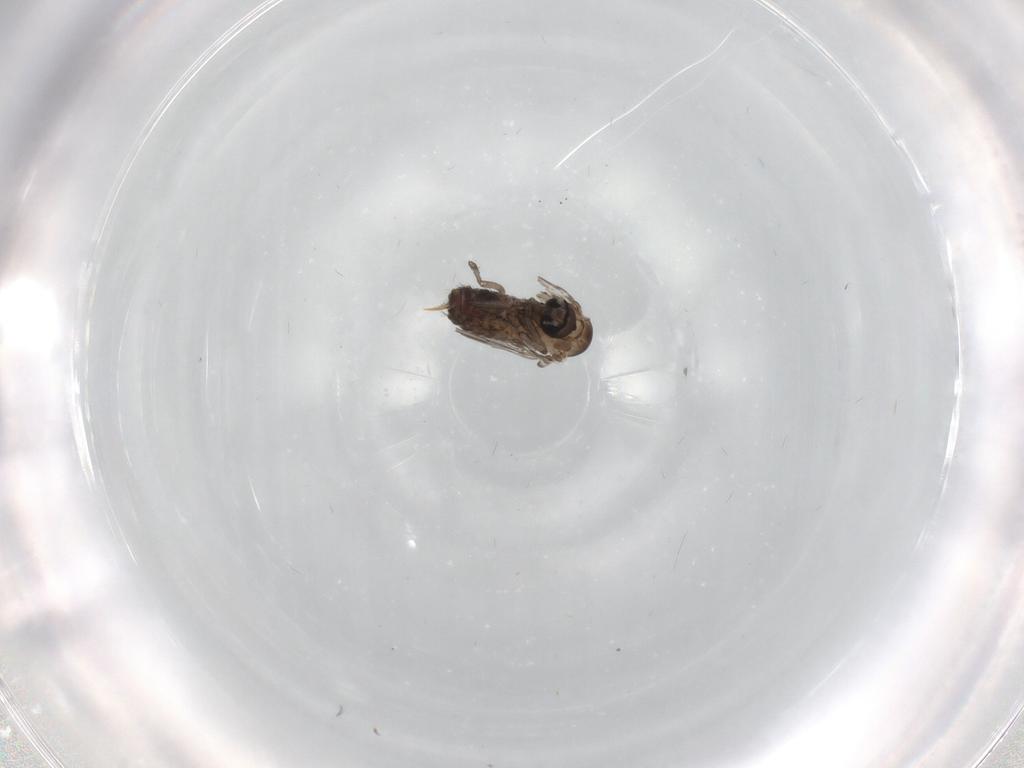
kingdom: Animalia
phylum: Arthropoda
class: Insecta
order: Diptera
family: Psychodidae
